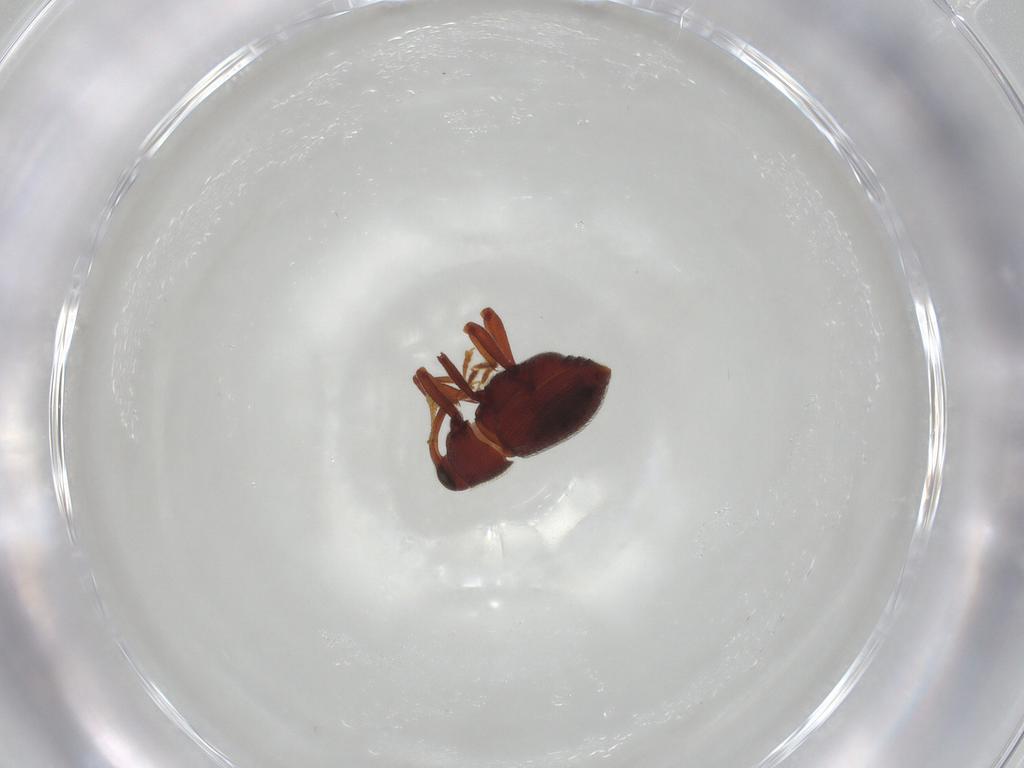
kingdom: Animalia
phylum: Arthropoda
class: Insecta
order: Coleoptera
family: Curculionidae
